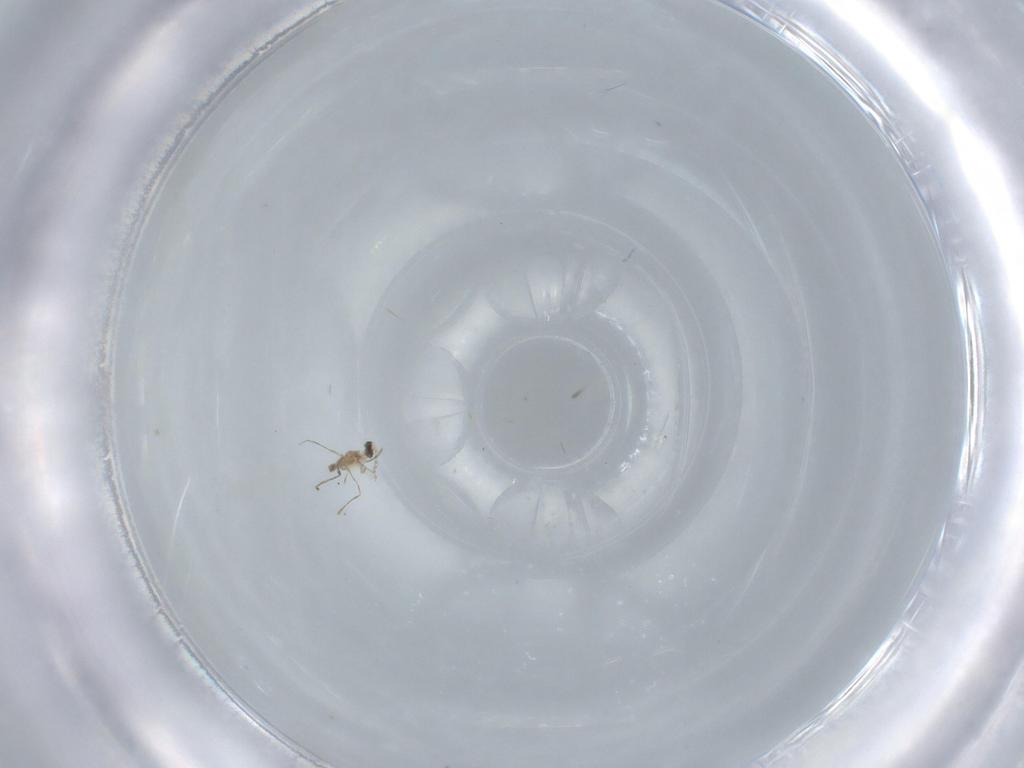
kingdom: Animalia
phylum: Arthropoda
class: Insecta
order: Diptera
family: Cecidomyiidae
